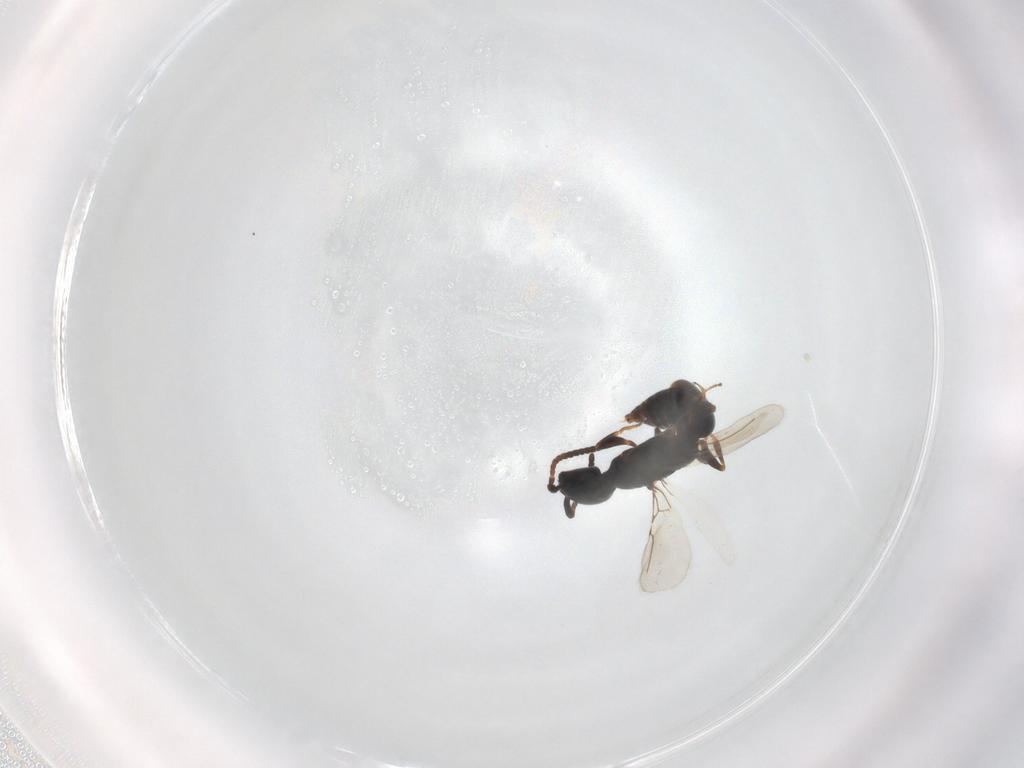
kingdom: Animalia
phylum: Arthropoda
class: Insecta
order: Hymenoptera
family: Bethylidae
